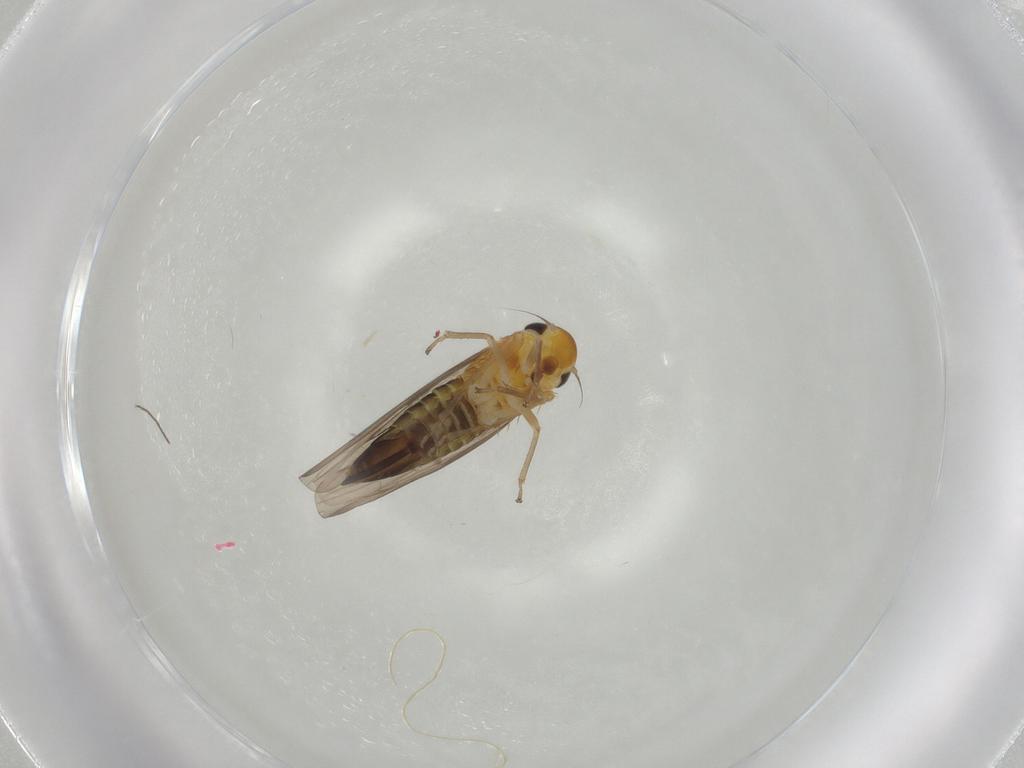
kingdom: Animalia
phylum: Arthropoda
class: Insecta
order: Hemiptera
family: Cicadellidae
